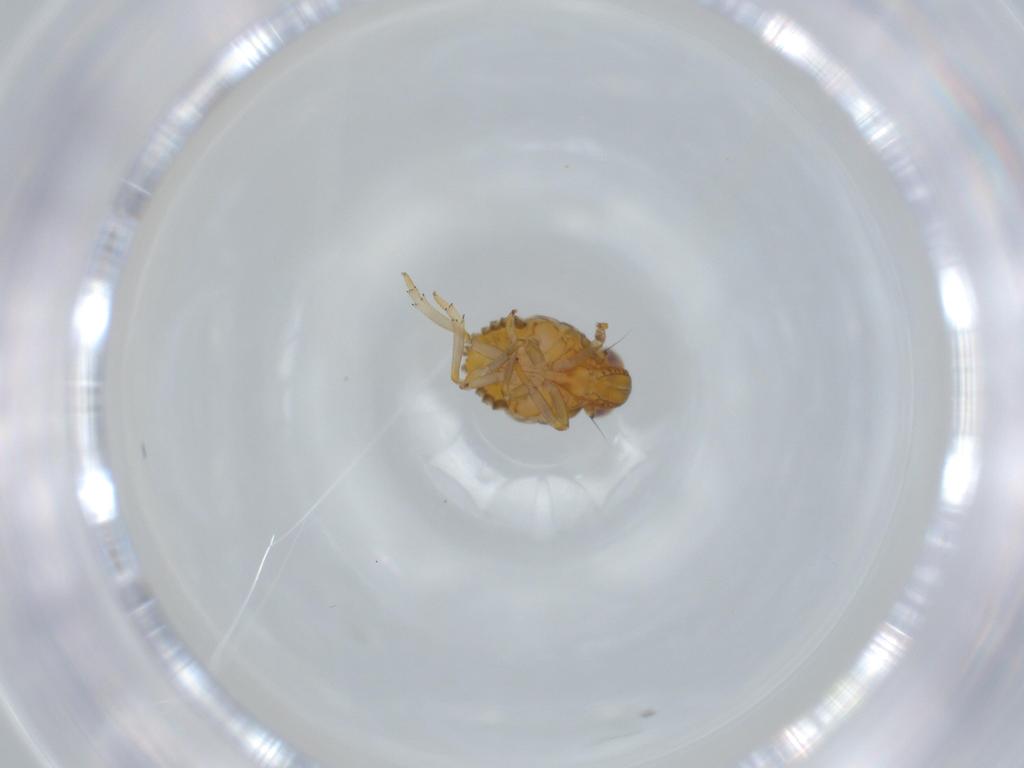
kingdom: Animalia
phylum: Arthropoda
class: Insecta
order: Hemiptera
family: Issidae
